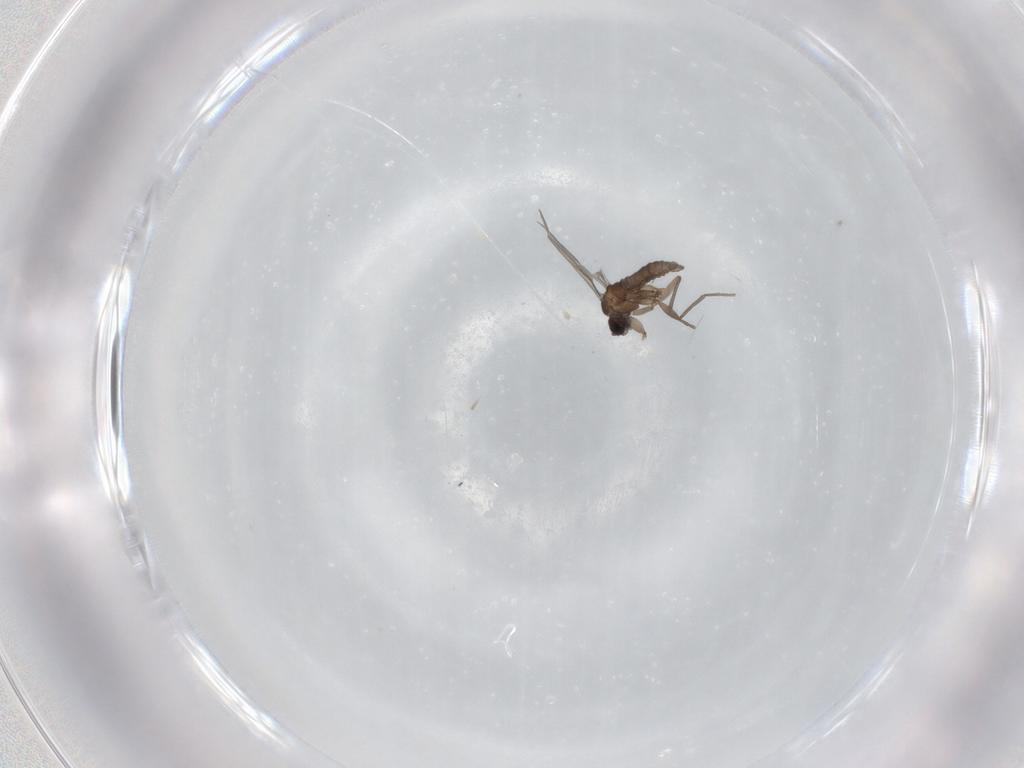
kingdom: Animalia
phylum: Arthropoda
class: Insecta
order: Diptera
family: Sciaridae
